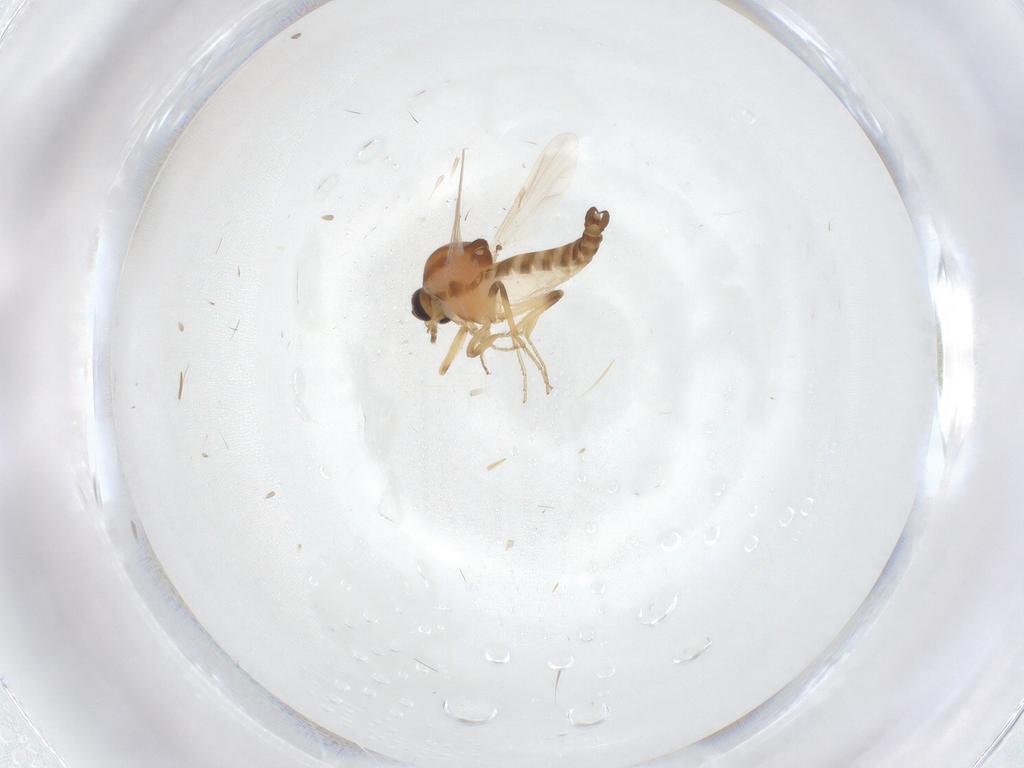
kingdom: Animalia
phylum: Arthropoda
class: Insecta
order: Diptera
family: Ceratopogonidae
